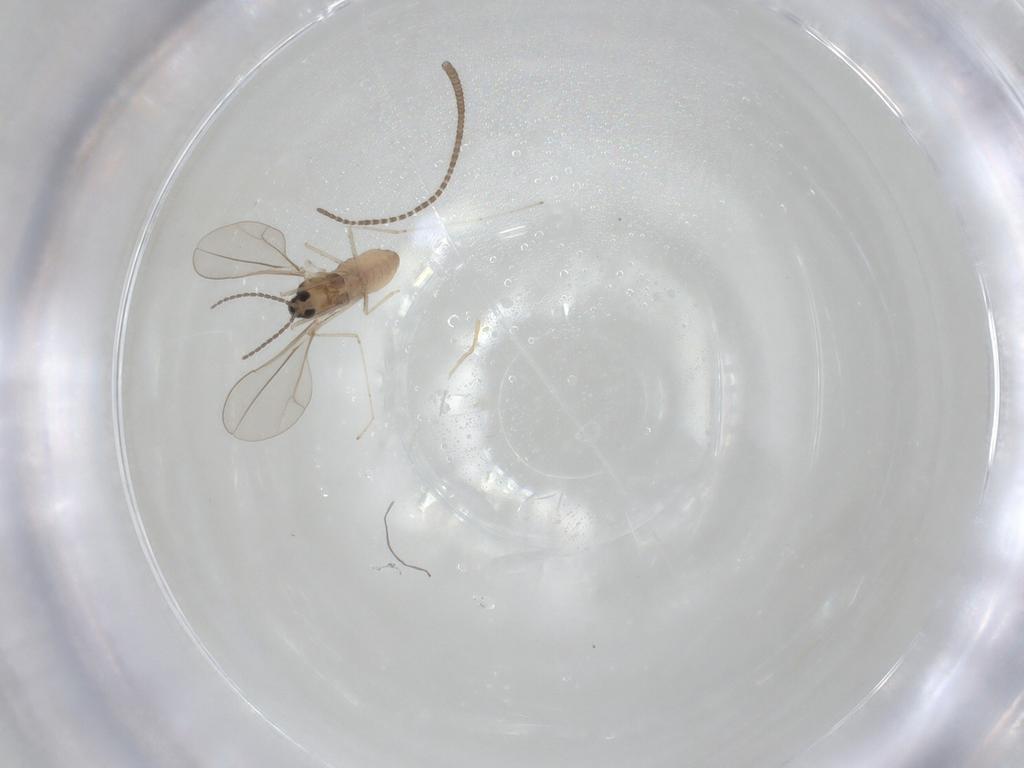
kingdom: Animalia
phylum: Arthropoda
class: Insecta
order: Diptera
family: Cecidomyiidae
